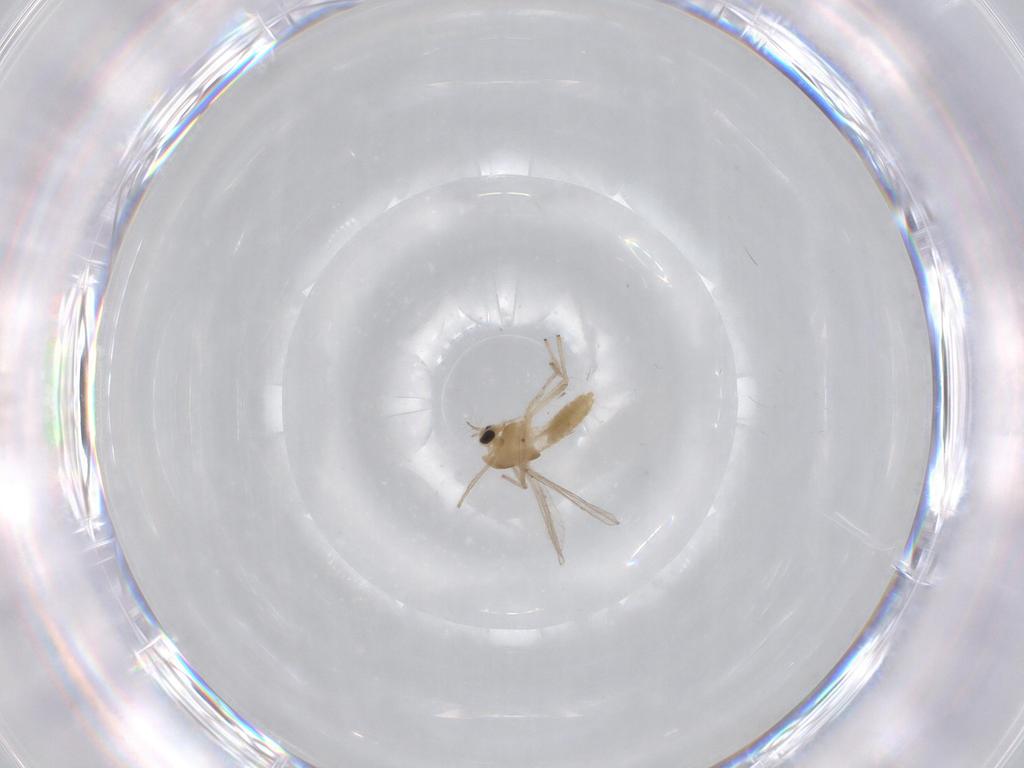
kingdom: Animalia
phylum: Arthropoda
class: Insecta
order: Diptera
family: Chironomidae
